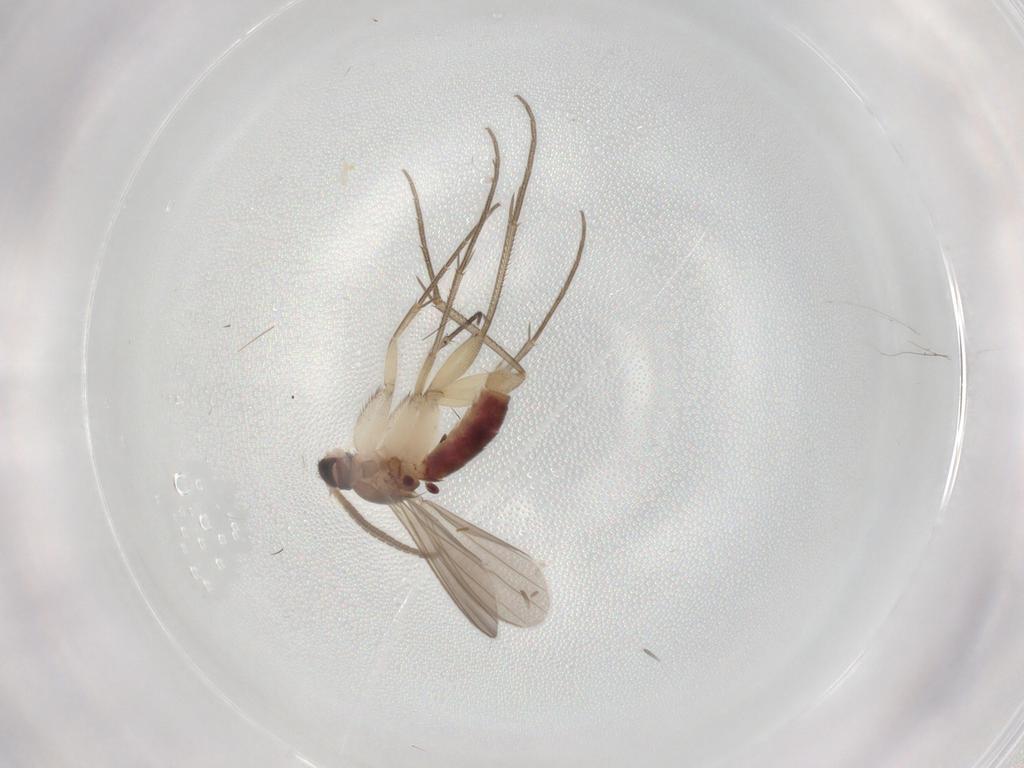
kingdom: Animalia
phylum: Arthropoda
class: Insecta
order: Diptera
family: Mycetophilidae
